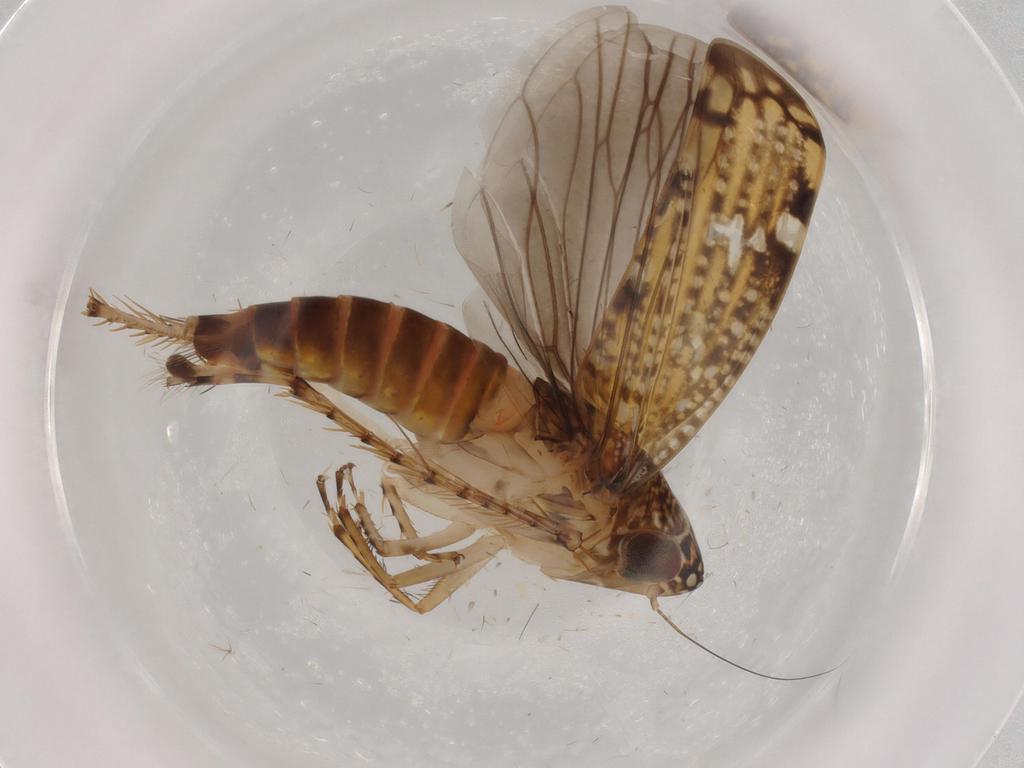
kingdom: Animalia
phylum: Arthropoda
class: Insecta
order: Hemiptera
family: Cicadellidae
